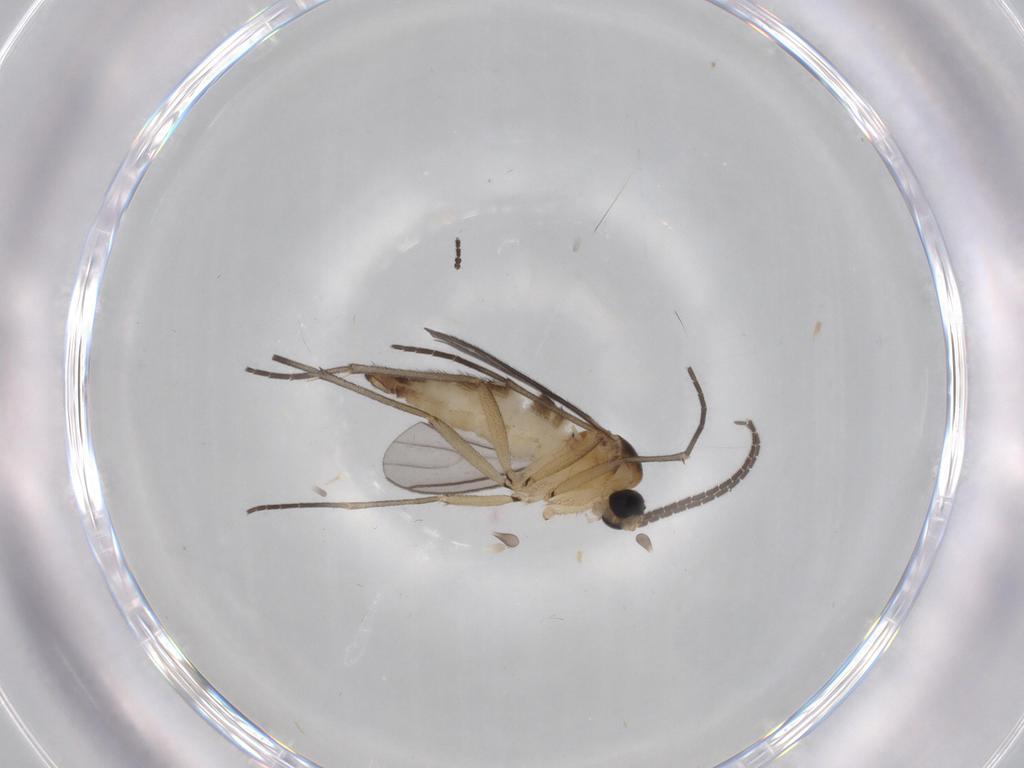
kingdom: Animalia
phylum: Arthropoda
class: Insecta
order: Diptera
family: Sciaridae
